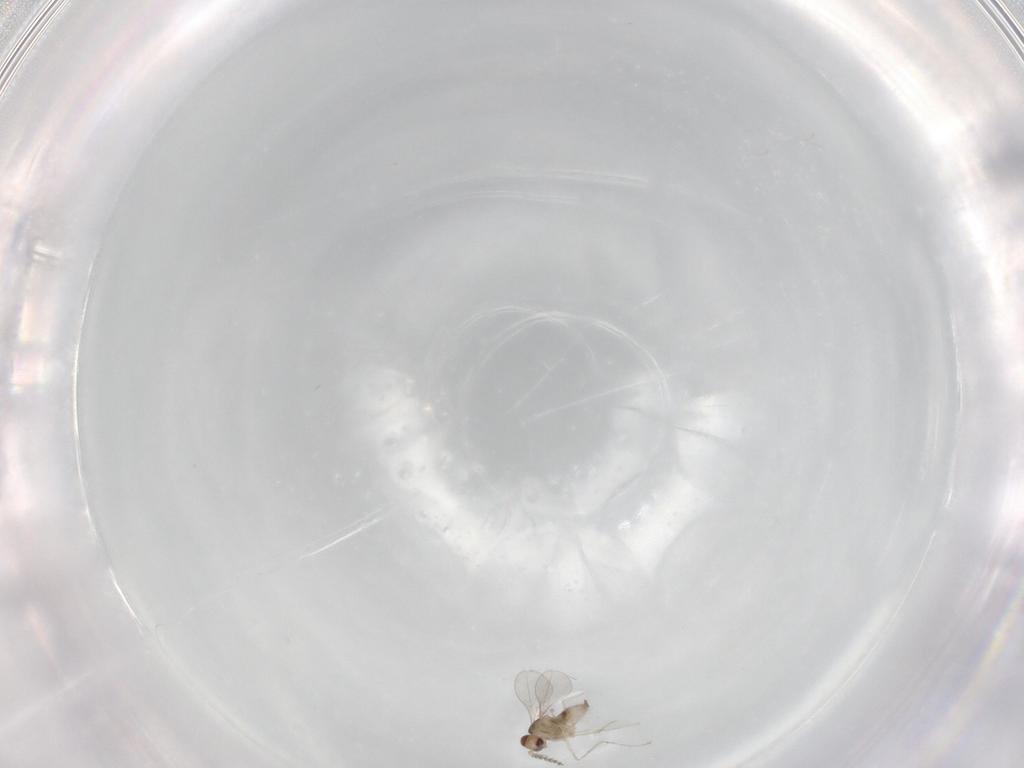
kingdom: Animalia
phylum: Arthropoda
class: Insecta
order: Diptera
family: Cecidomyiidae
